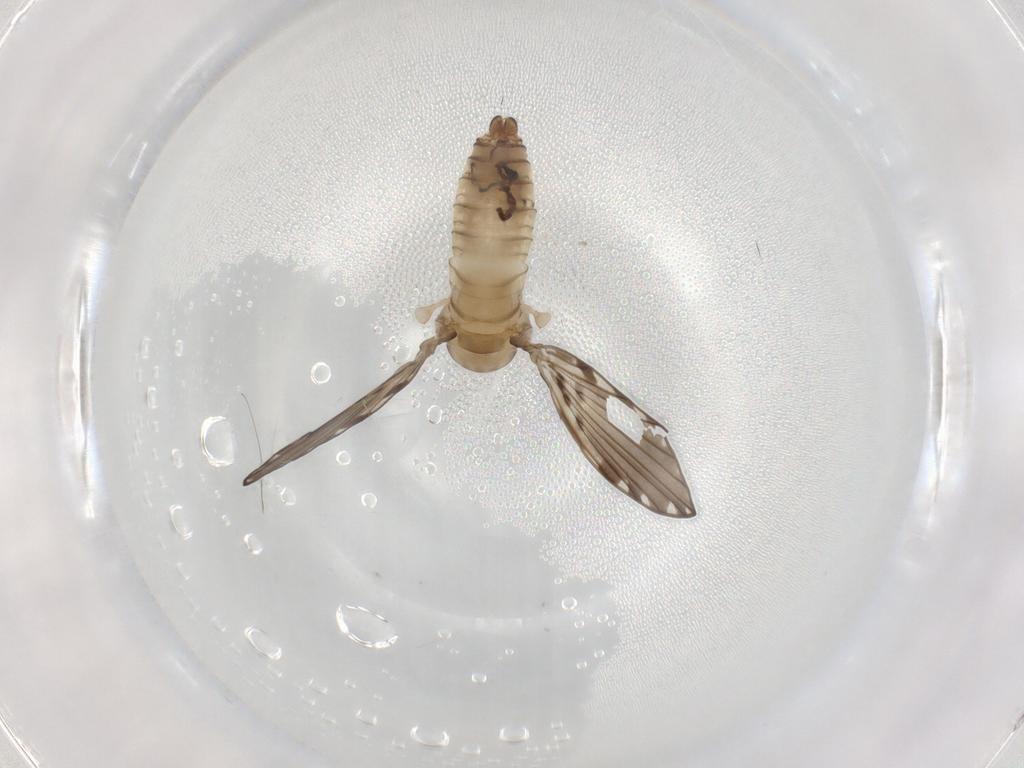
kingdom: Animalia
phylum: Arthropoda
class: Insecta
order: Diptera
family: Psychodidae
